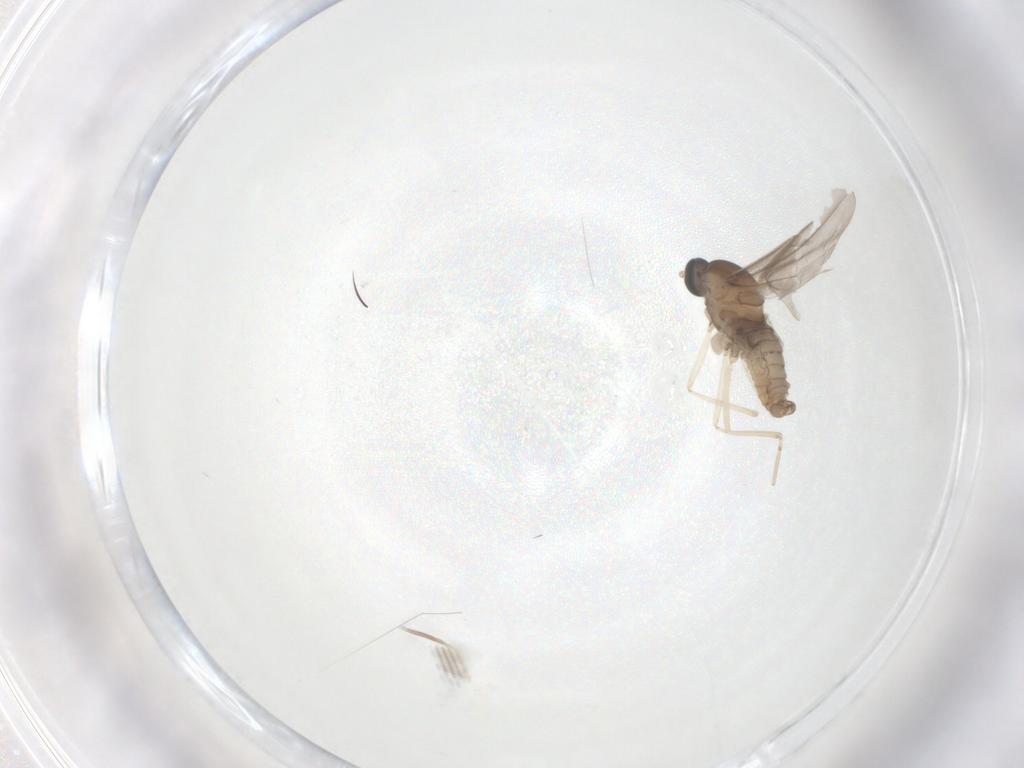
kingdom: Animalia
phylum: Arthropoda
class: Insecta
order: Diptera
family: Cecidomyiidae
